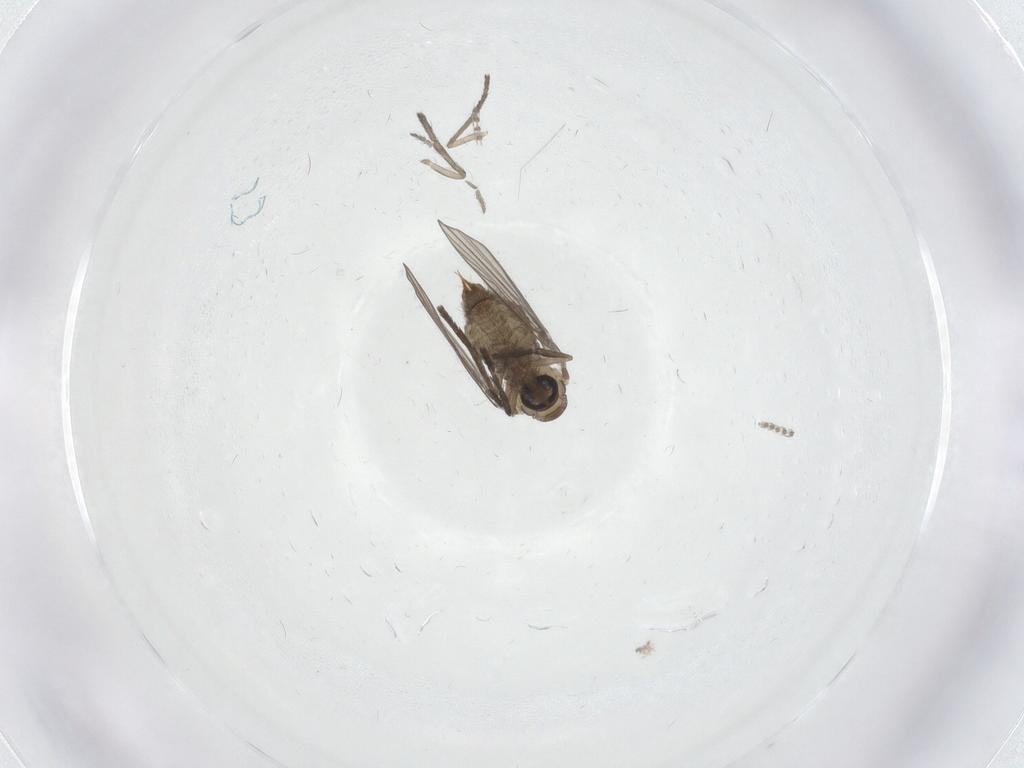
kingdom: Animalia
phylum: Arthropoda
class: Insecta
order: Diptera
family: Psychodidae
